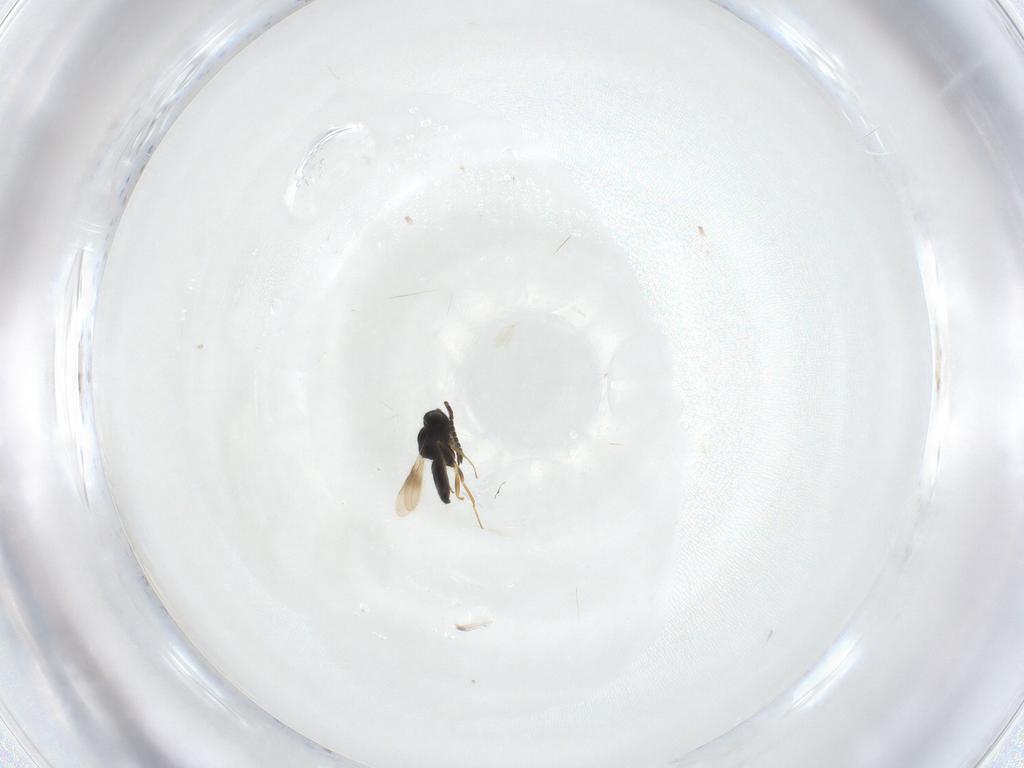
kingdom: Animalia
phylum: Arthropoda
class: Insecta
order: Hymenoptera
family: Scelionidae
